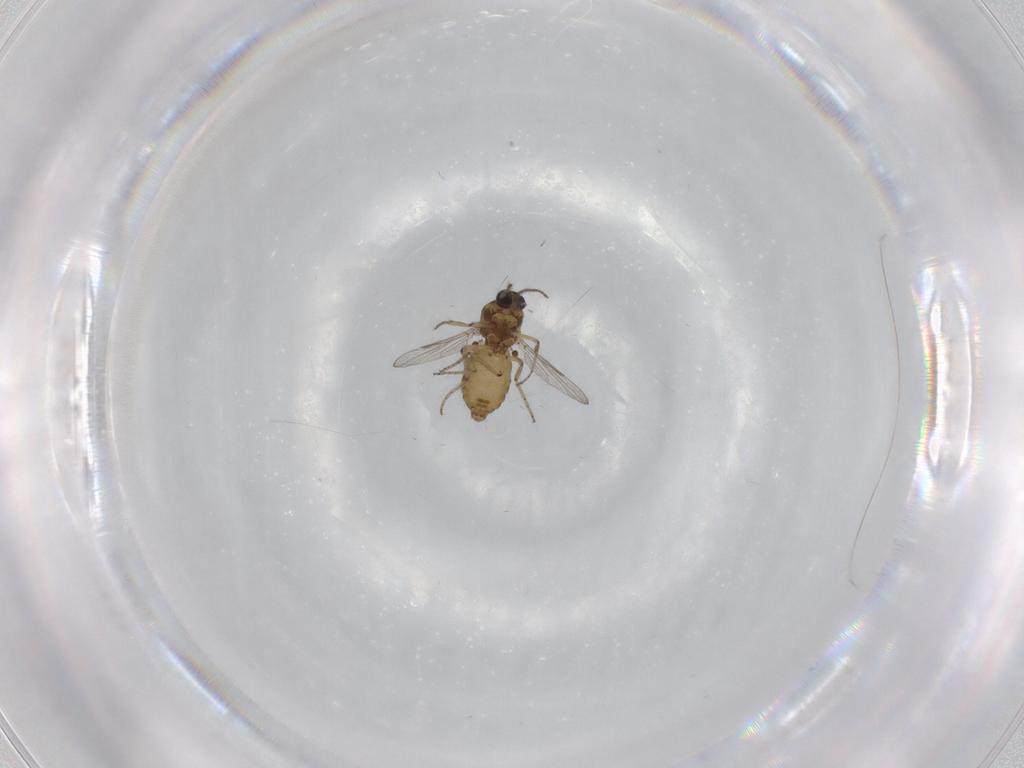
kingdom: Animalia
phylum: Arthropoda
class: Insecta
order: Diptera
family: Ceratopogonidae
